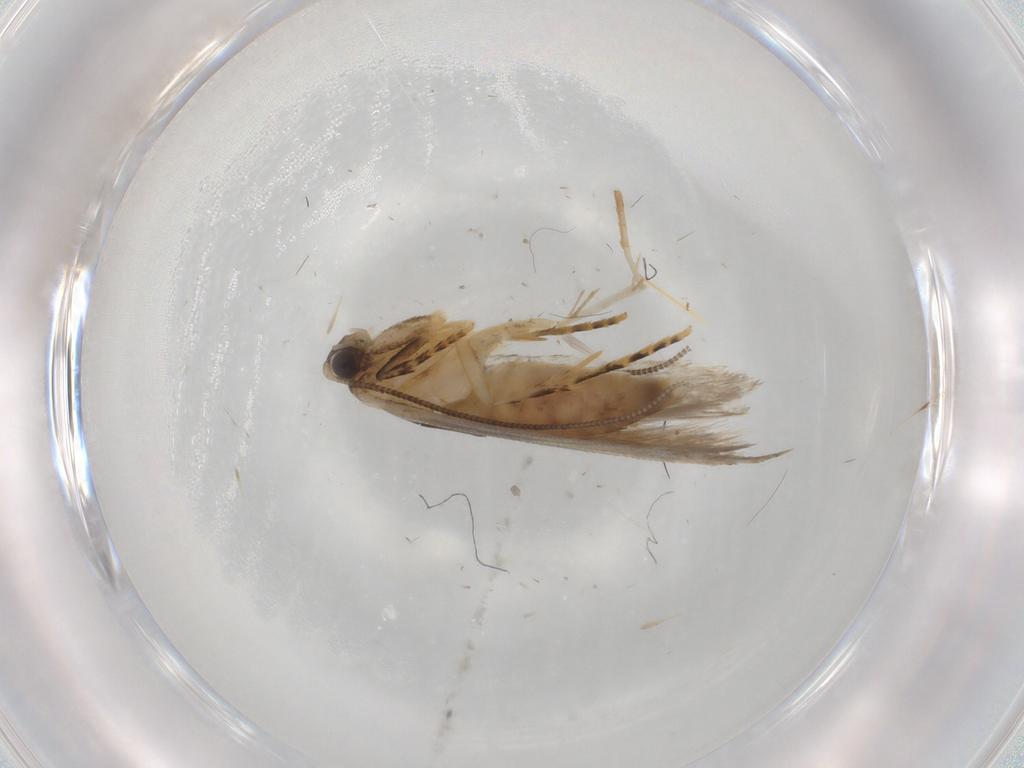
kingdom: Animalia
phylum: Arthropoda
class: Insecta
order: Lepidoptera
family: Noctuidae
